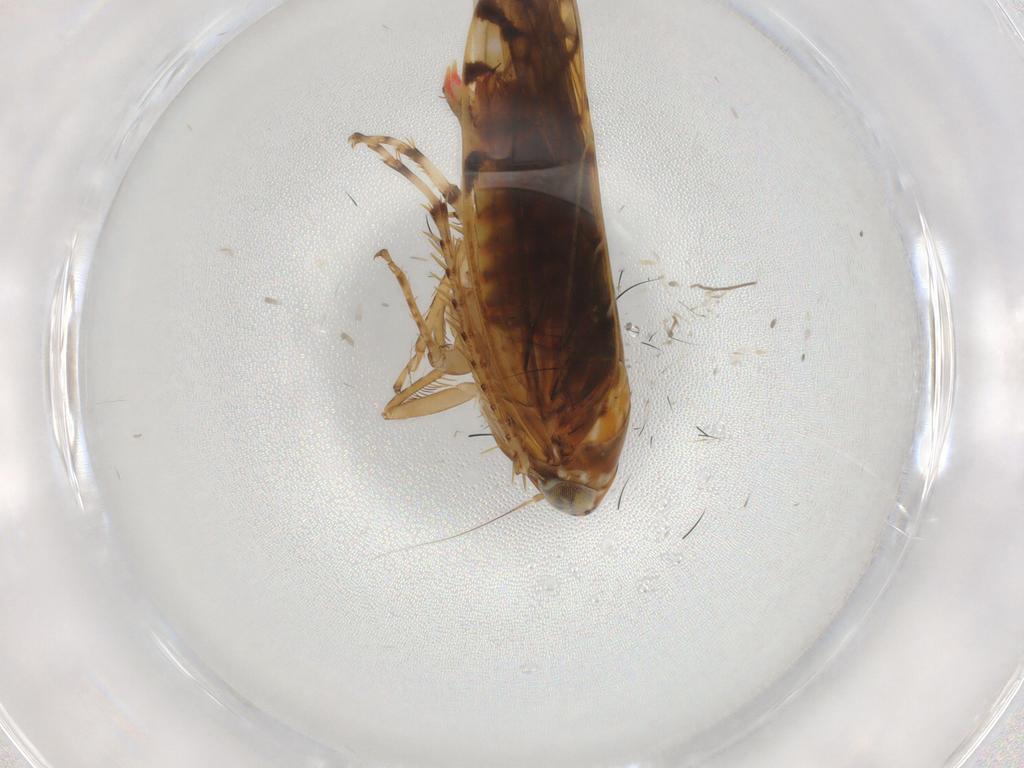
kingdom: Animalia
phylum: Arthropoda
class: Insecta
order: Hemiptera
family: Cicadellidae
